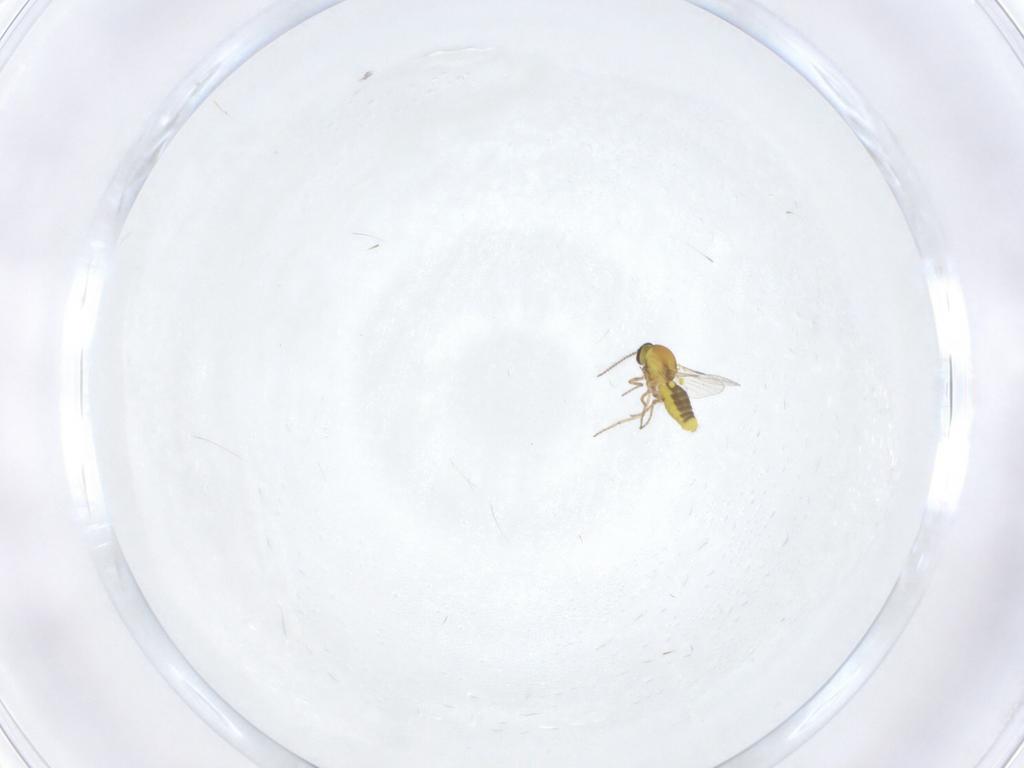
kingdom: Animalia
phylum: Arthropoda
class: Insecta
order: Diptera
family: Ceratopogonidae
